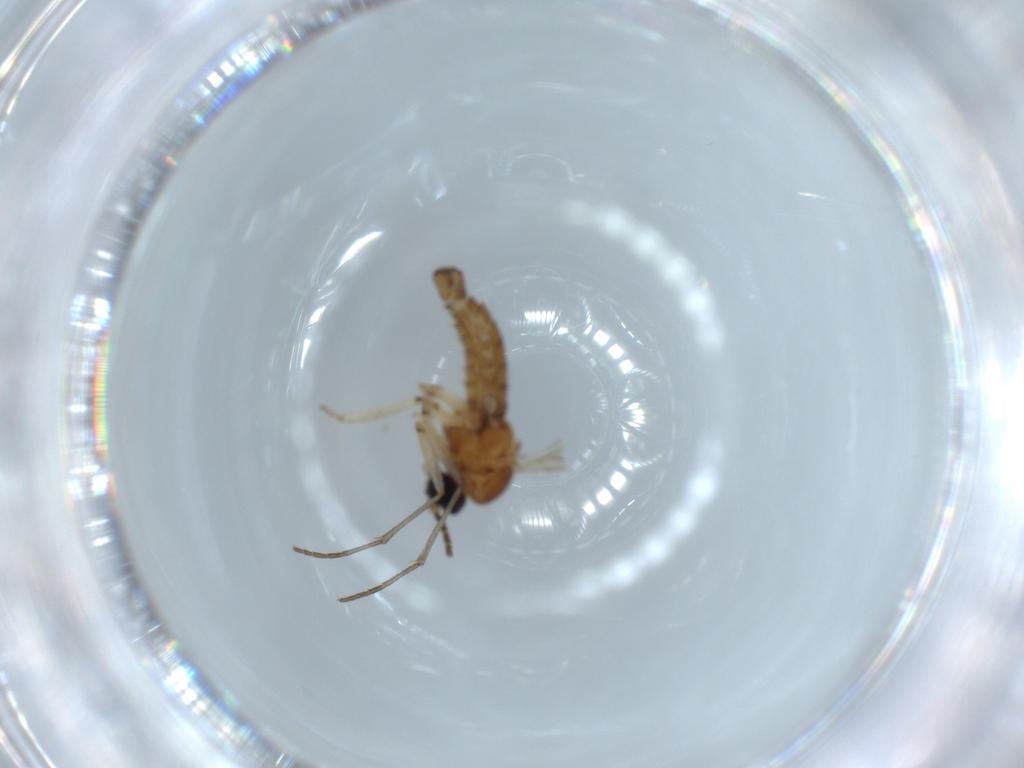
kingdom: Animalia
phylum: Arthropoda
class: Insecta
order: Diptera
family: Sciaridae
